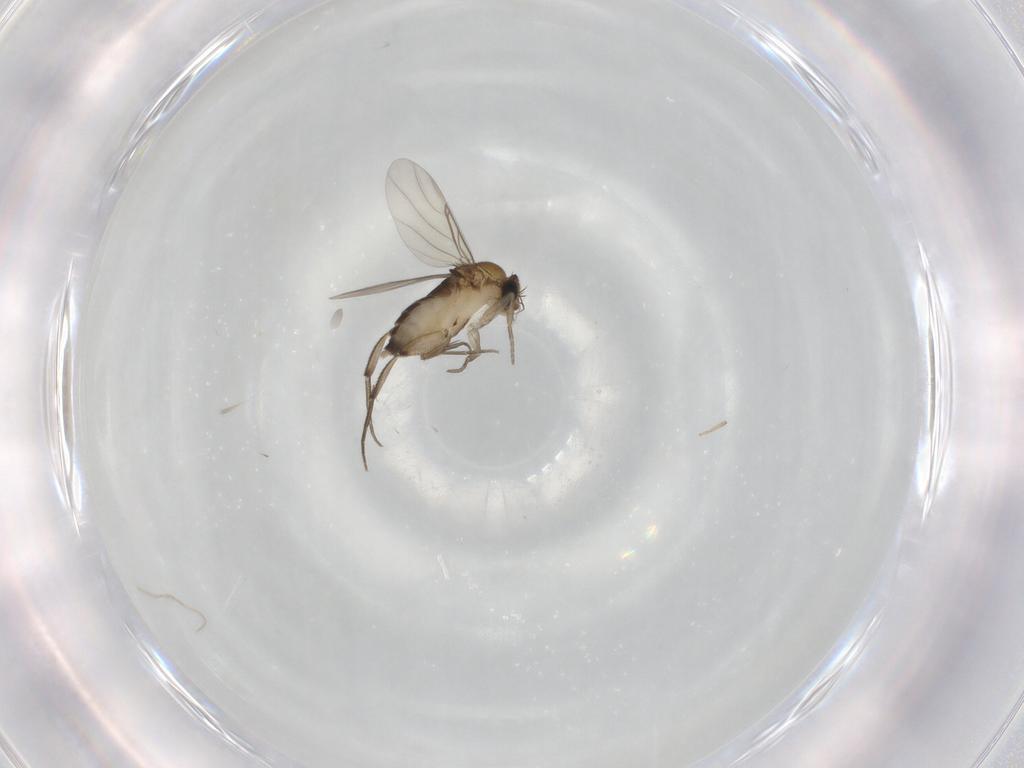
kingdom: Animalia
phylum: Arthropoda
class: Insecta
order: Diptera
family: Phoridae
